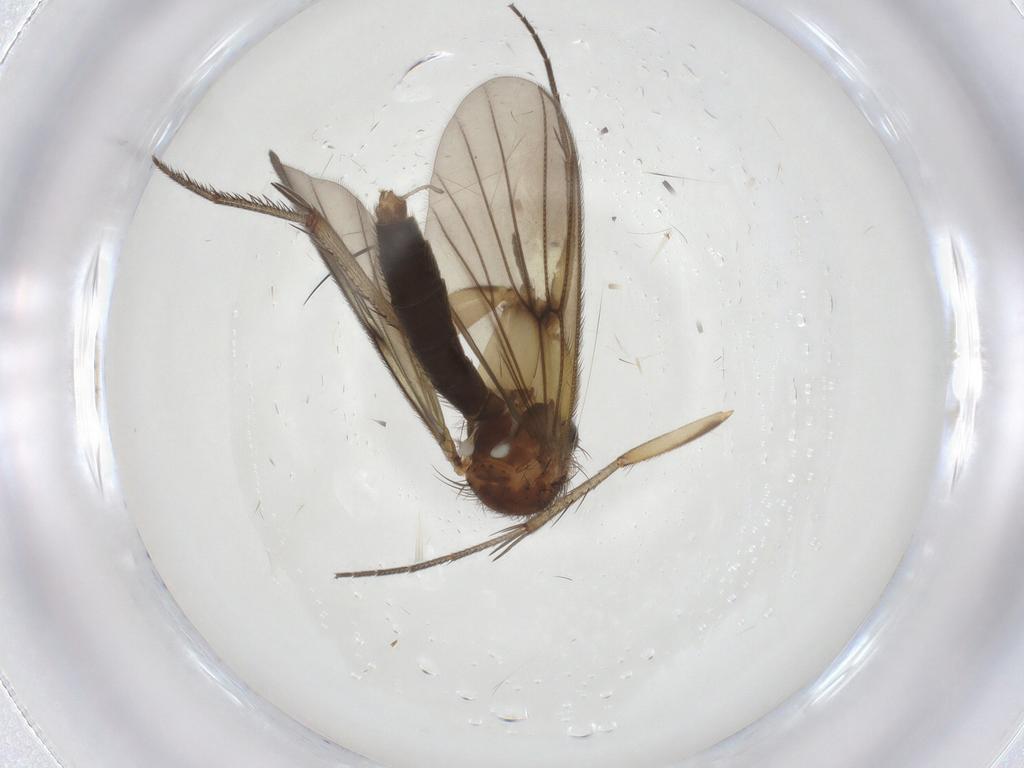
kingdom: Animalia
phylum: Arthropoda
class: Insecta
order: Diptera
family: Mycetophilidae
